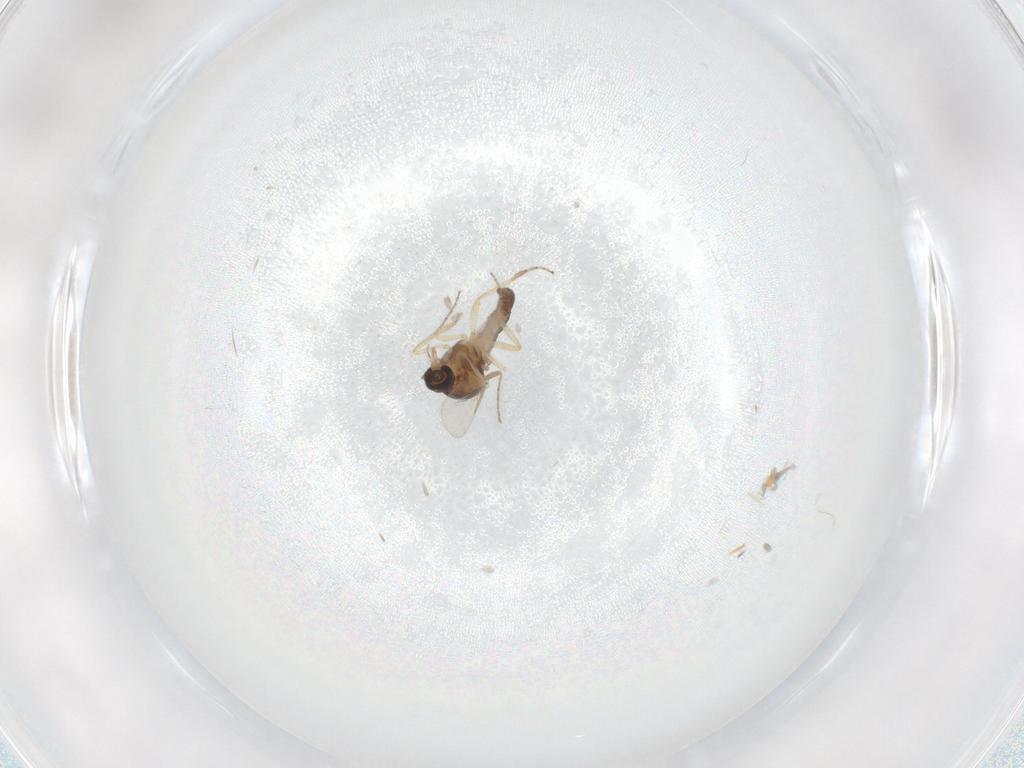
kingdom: Animalia
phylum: Arthropoda
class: Insecta
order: Diptera
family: Ceratopogonidae
